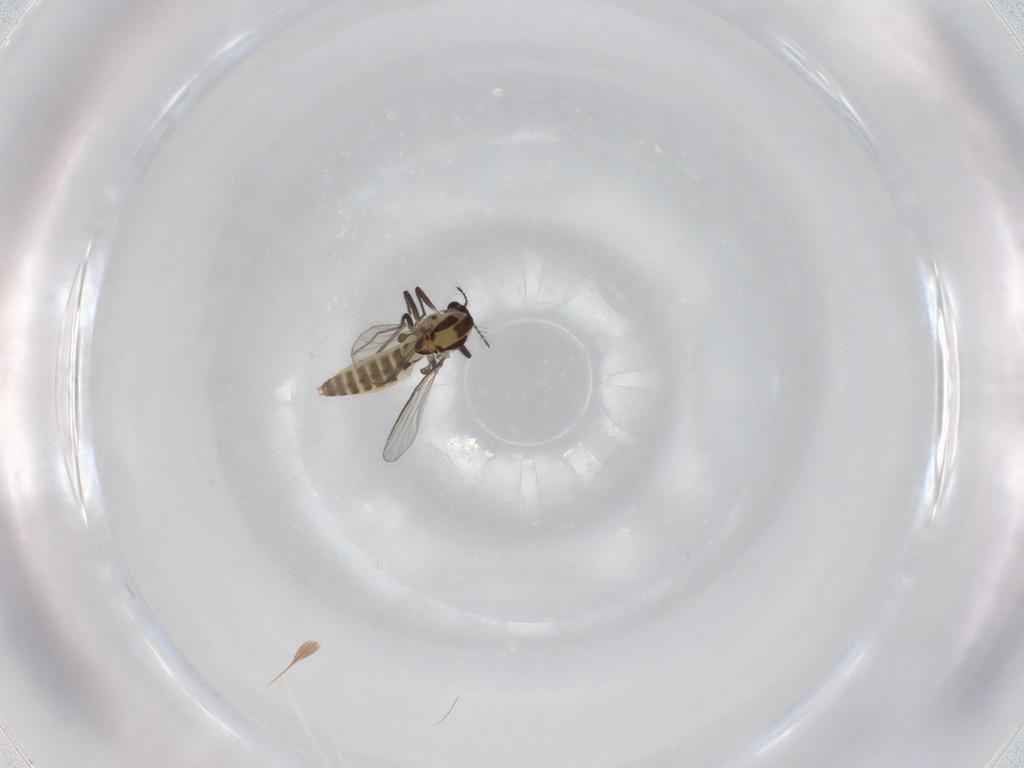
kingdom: Animalia
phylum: Arthropoda
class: Insecta
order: Diptera
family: Chironomidae
